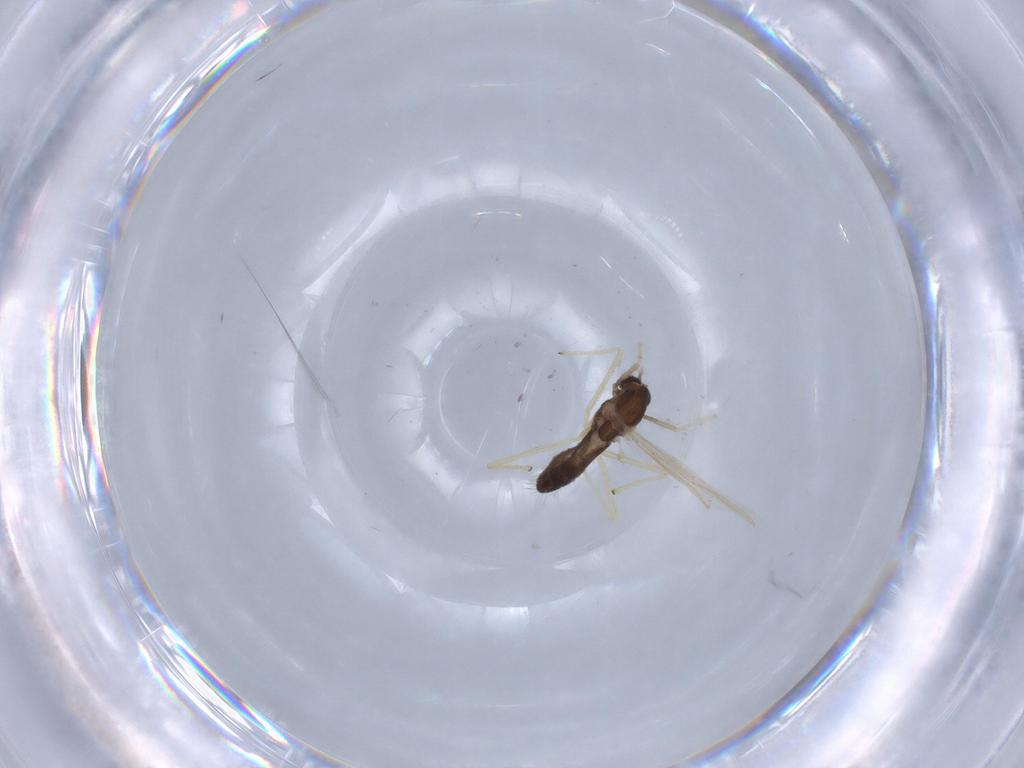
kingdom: Animalia
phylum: Arthropoda
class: Insecta
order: Diptera
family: Chironomidae
